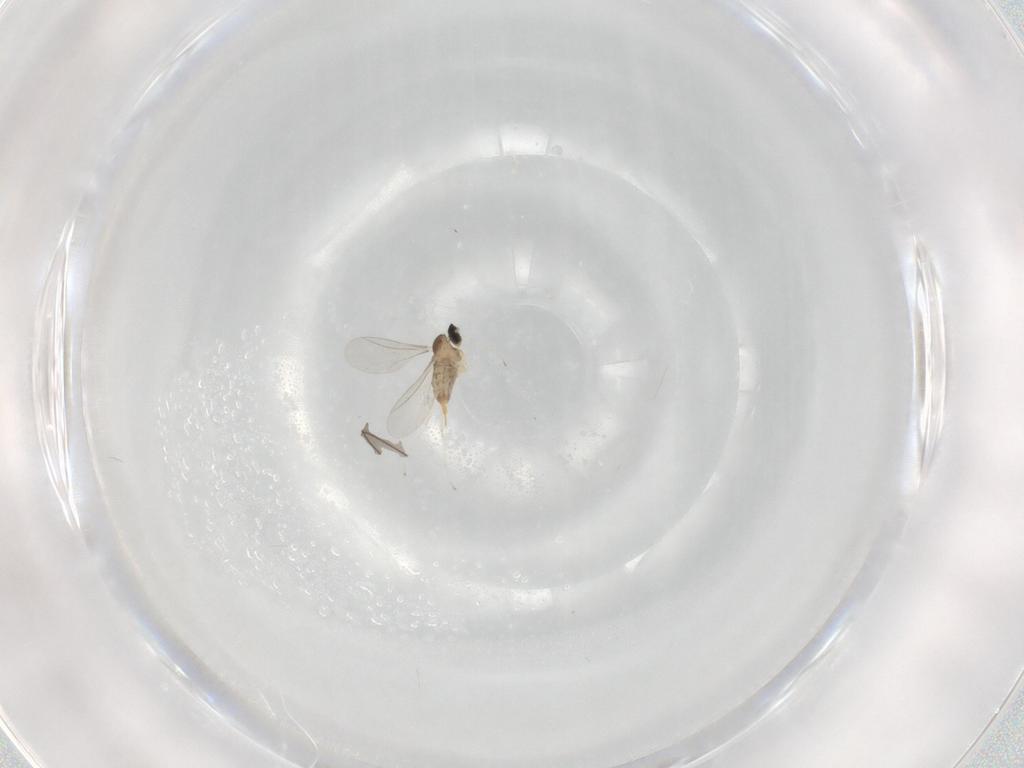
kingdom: Animalia
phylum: Arthropoda
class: Insecta
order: Diptera
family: Cecidomyiidae
